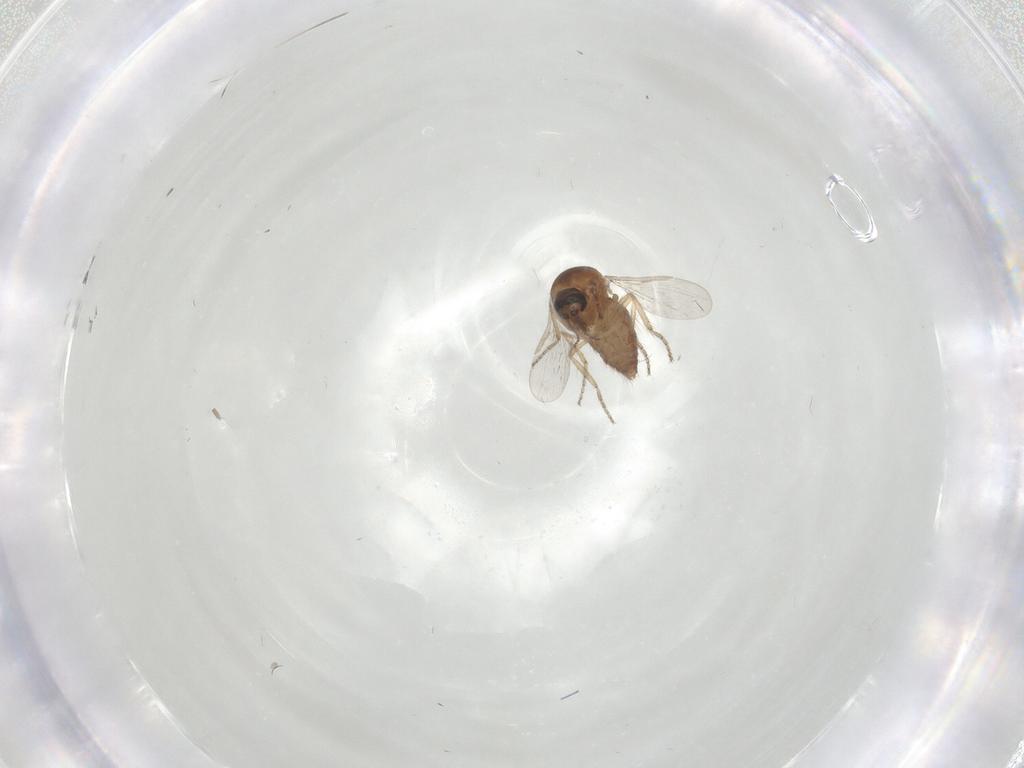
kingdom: Animalia
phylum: Arthropoda
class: Insecta
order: Diptera
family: Ceratopogonidae
